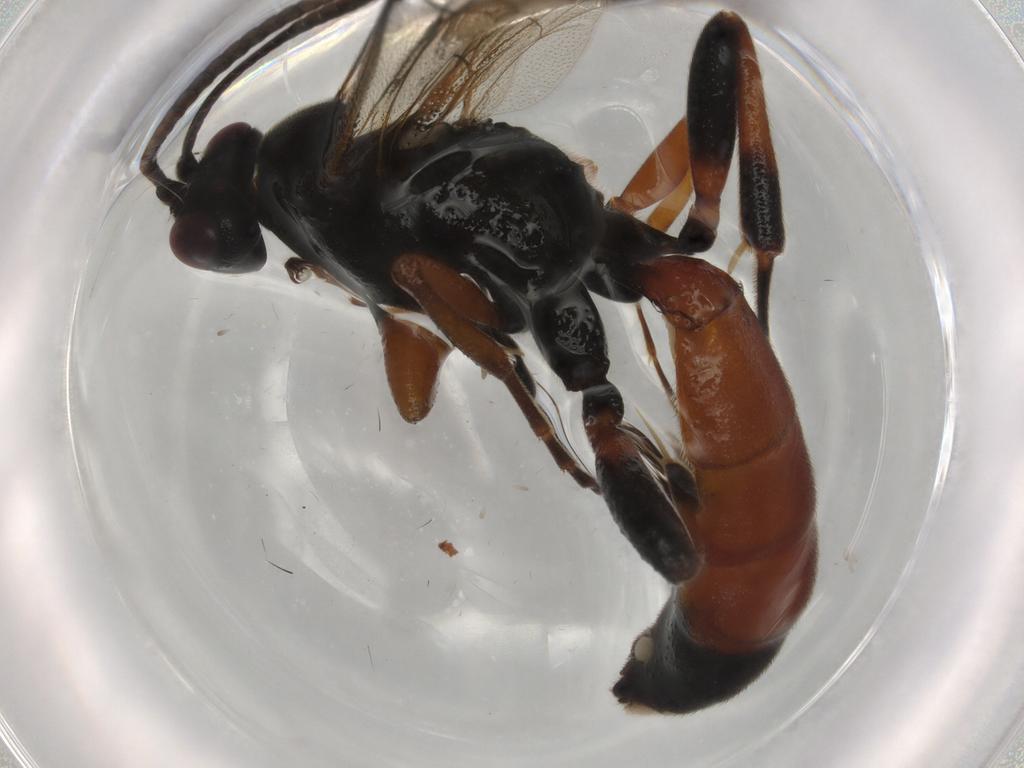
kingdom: Animalia
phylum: Arthropoda
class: Insecta
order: Hymenoptera
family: Ichneumonidae
